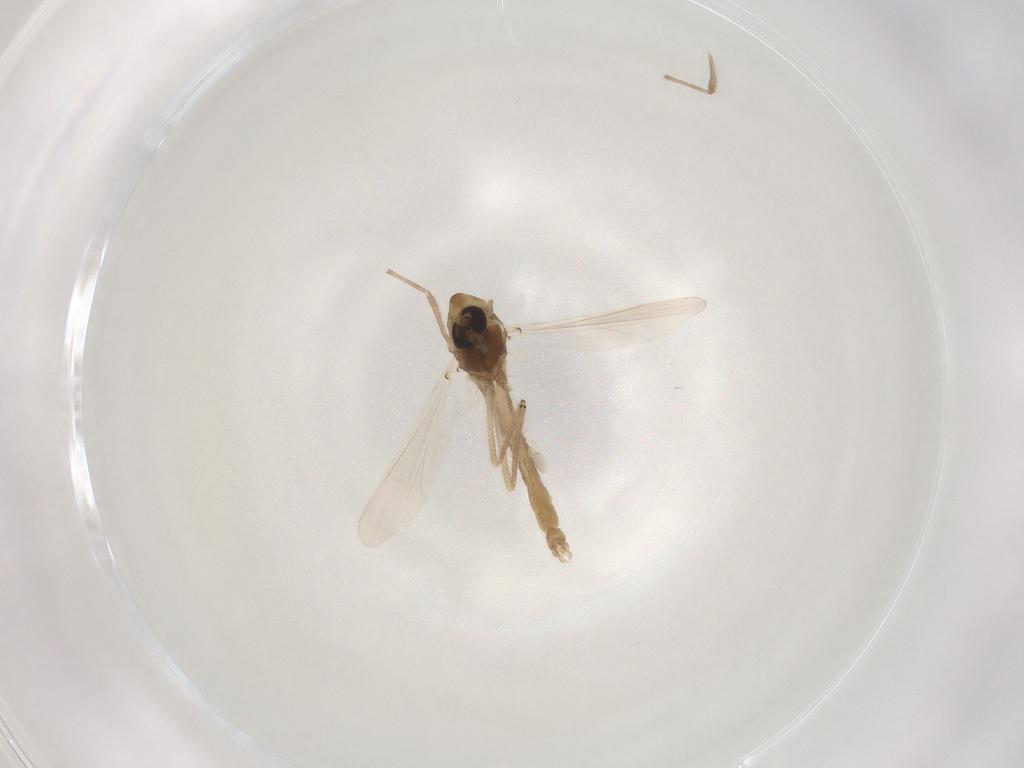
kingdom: Animalia
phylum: Arthropoda
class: Insecta
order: Diptera
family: Chironomidae
